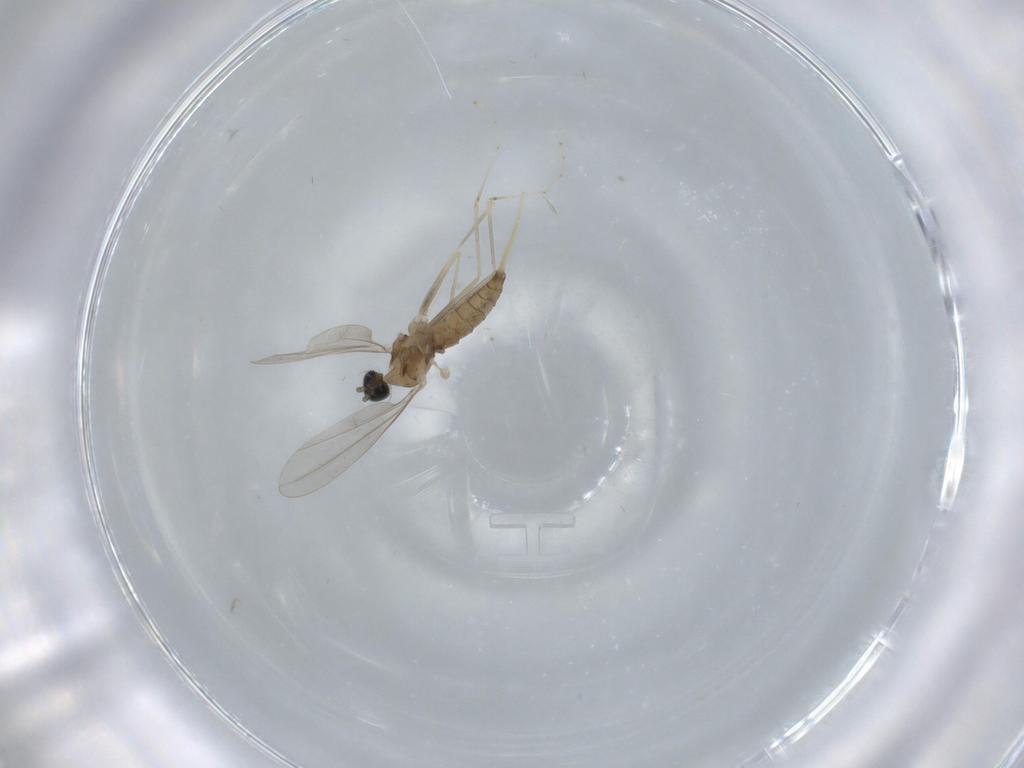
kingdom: Animalia
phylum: Arthropoda
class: Insecta
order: Diptera
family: Cecidomyiidae
